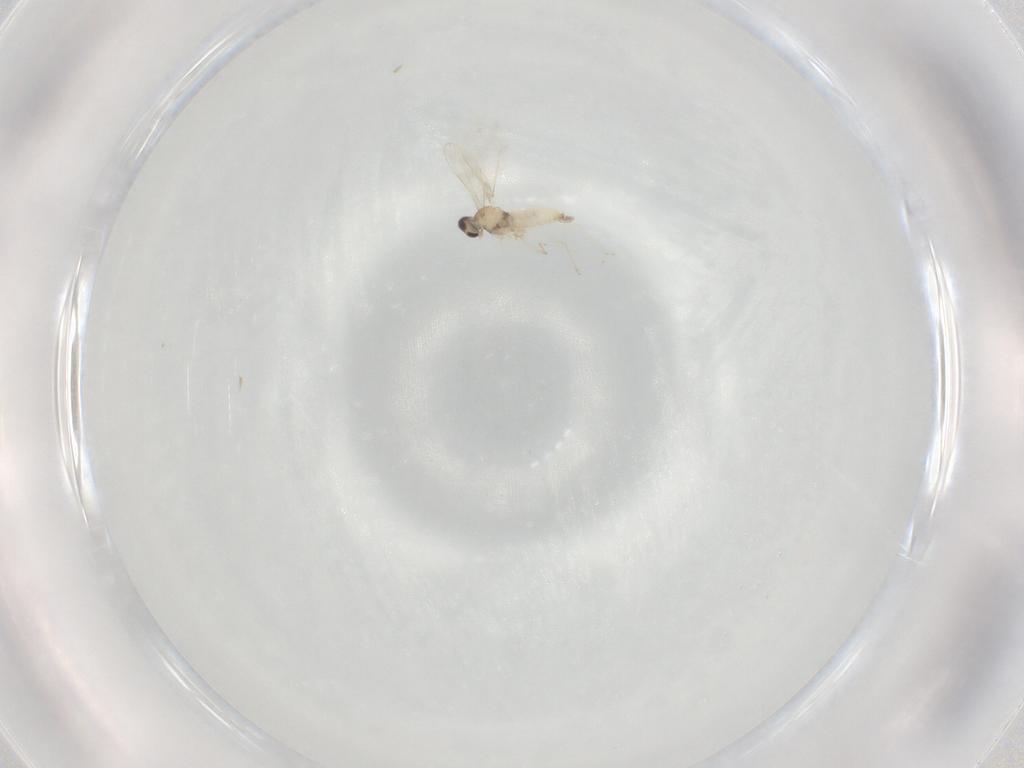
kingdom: Animalia
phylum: Arthropoda
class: Insecta
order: Diptera
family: Cecidomyiidae
